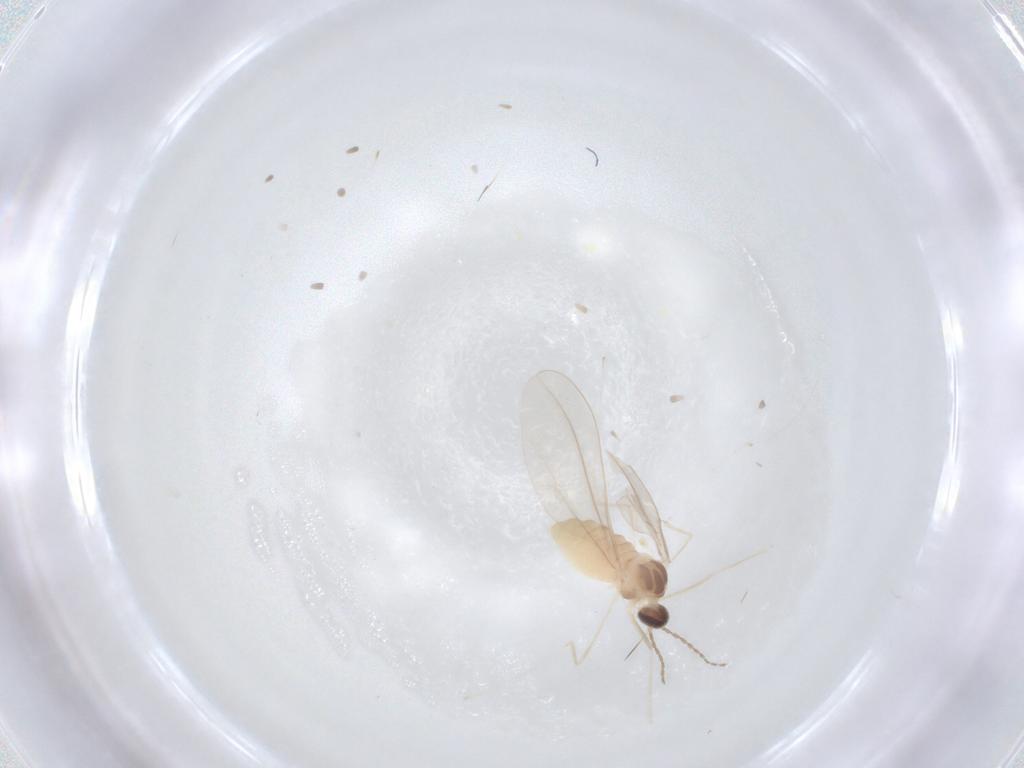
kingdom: Animalia
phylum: Arthropoda
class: Insecta
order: Diptera
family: Cecidomyiidae
